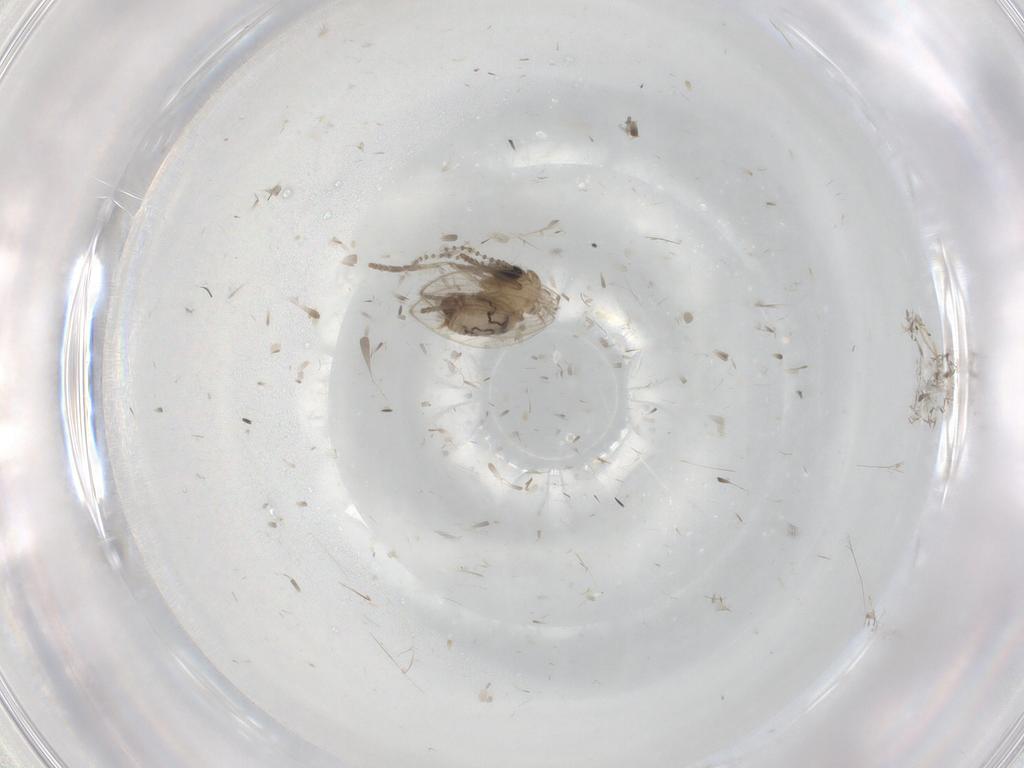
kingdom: Animalia
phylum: Arthropoda
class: Insecta
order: Diptera
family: Psychodidae
